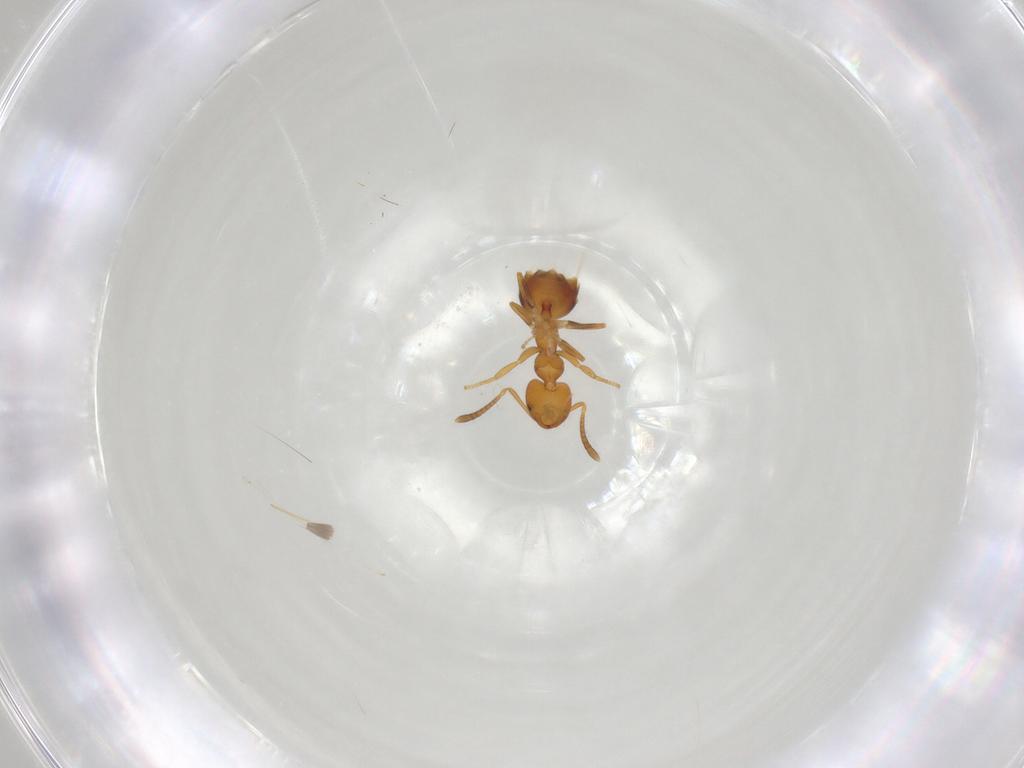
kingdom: Animalia
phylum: Arthropoda
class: Insecta
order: Hymenoptera
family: Formicidae
